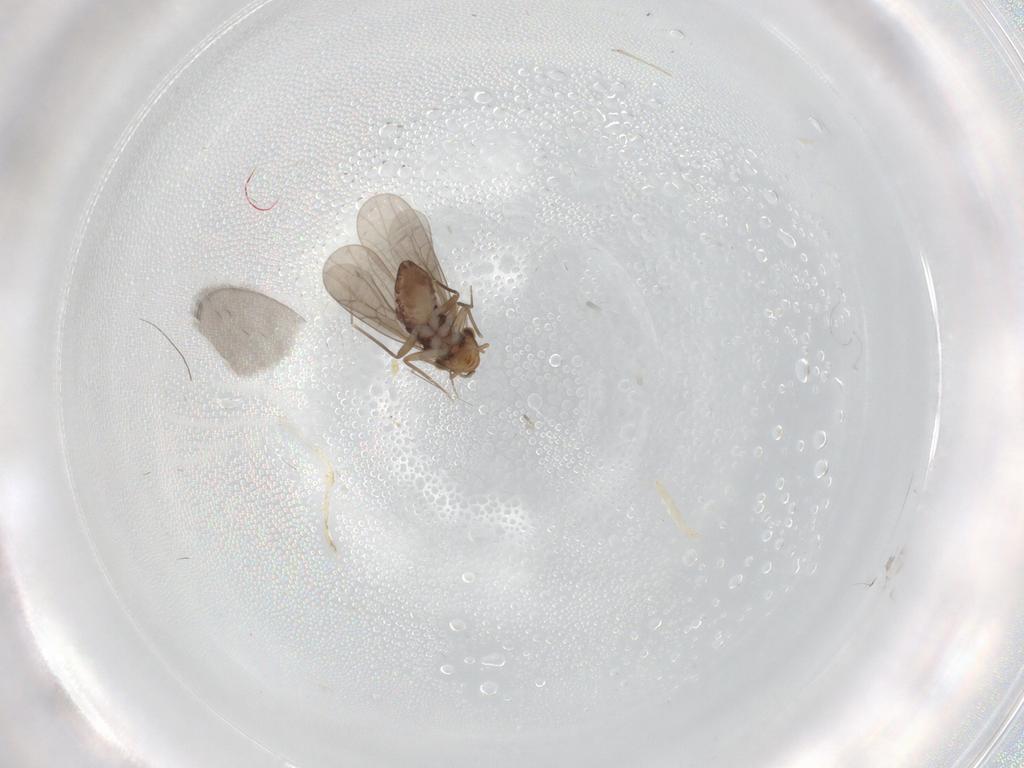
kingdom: Animalia
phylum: Arthropoda
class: Insecta
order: Psocodea
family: Lepidopsocidae
